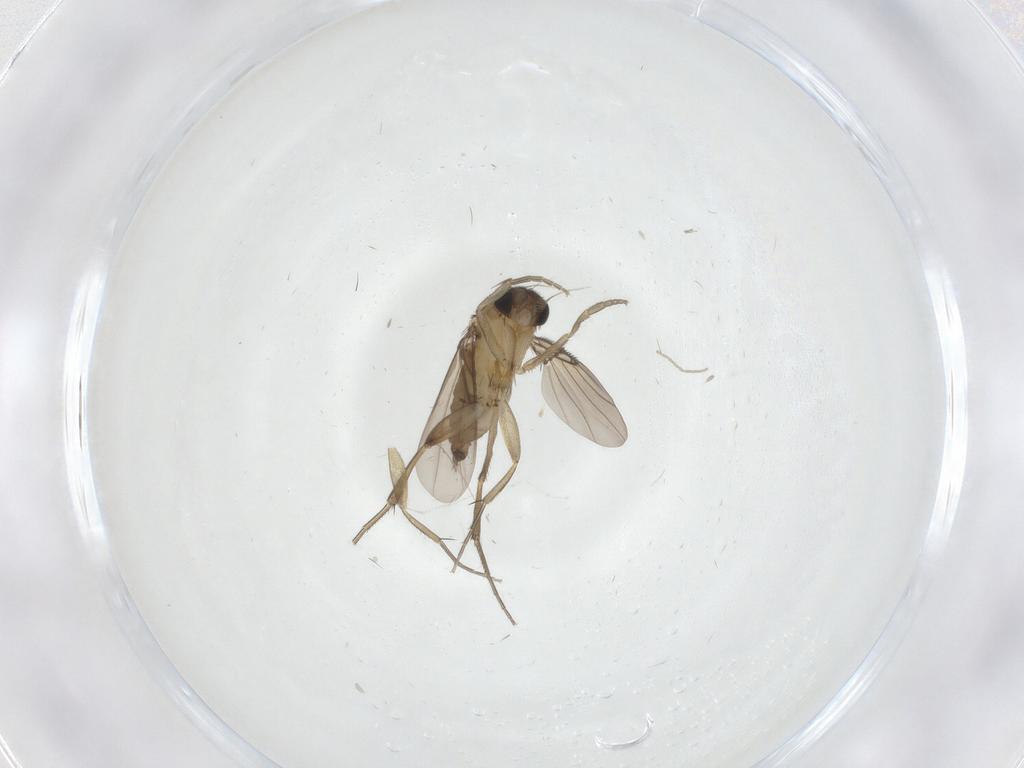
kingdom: Animalia
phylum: Arthropoda
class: Insecta
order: Diptera
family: Phoridae
